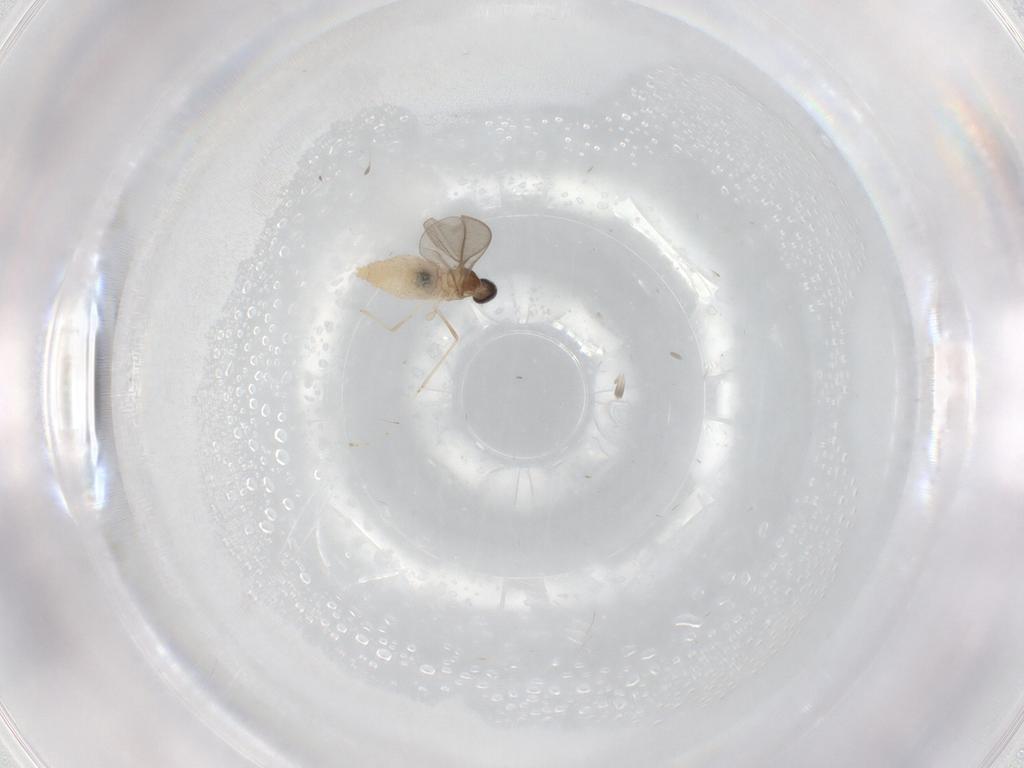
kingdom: Animalia
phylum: Arthropoda
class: Insecta
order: Diptera
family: Cecidomyiidae
